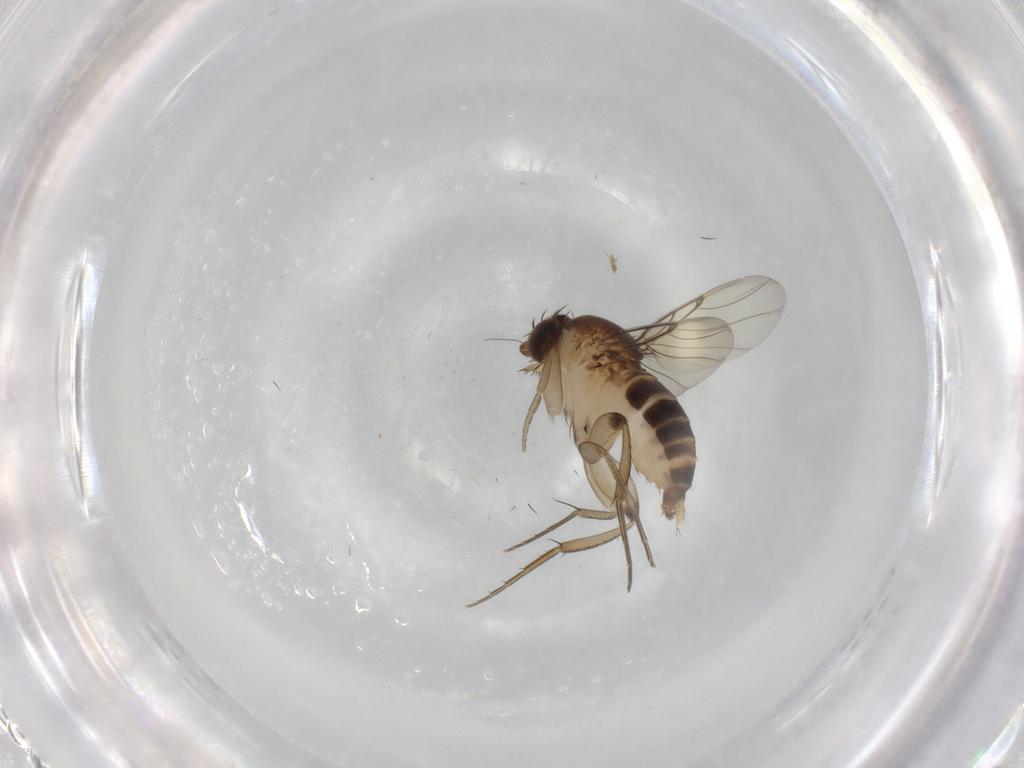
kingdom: Animalia
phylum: Arthropoda
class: Insecta
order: Diptera
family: Phoridae
